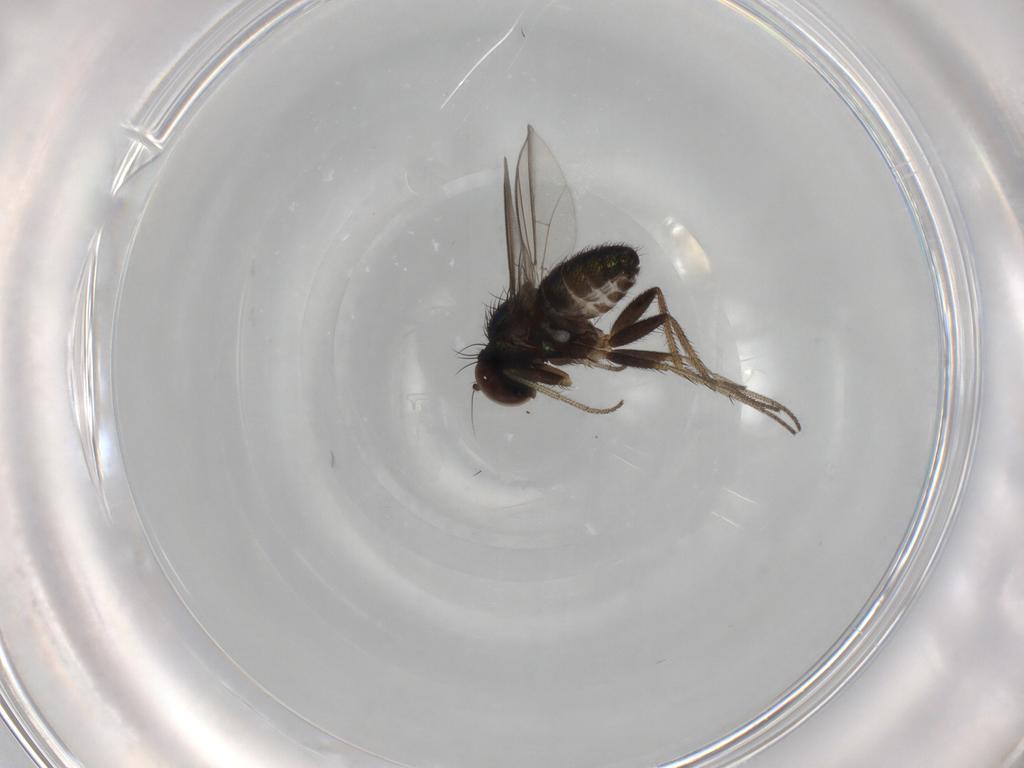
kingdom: Animalia
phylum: Arthropoda
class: Insecta
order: Diptera
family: Dolichopodidae
